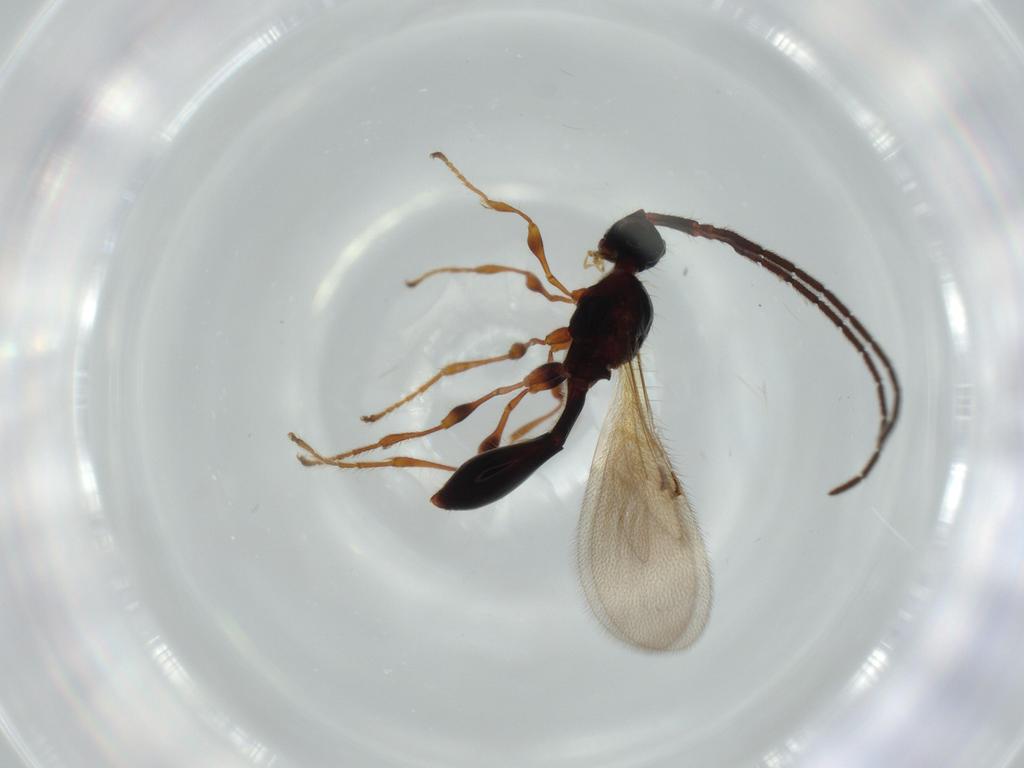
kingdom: Animalia
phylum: Arthropoda
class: Insecta
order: Hymenoptera
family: Diapriidae
